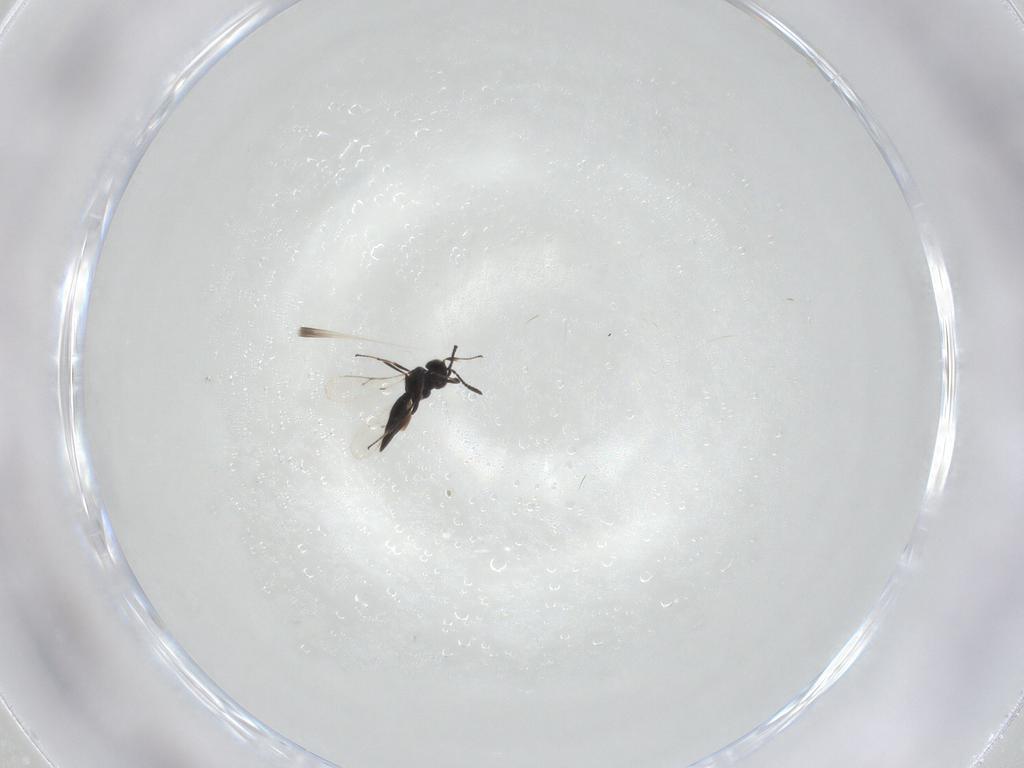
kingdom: Animalia
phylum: Arthropoda
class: Insecta
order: Hymenoptera
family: Scelionidae
